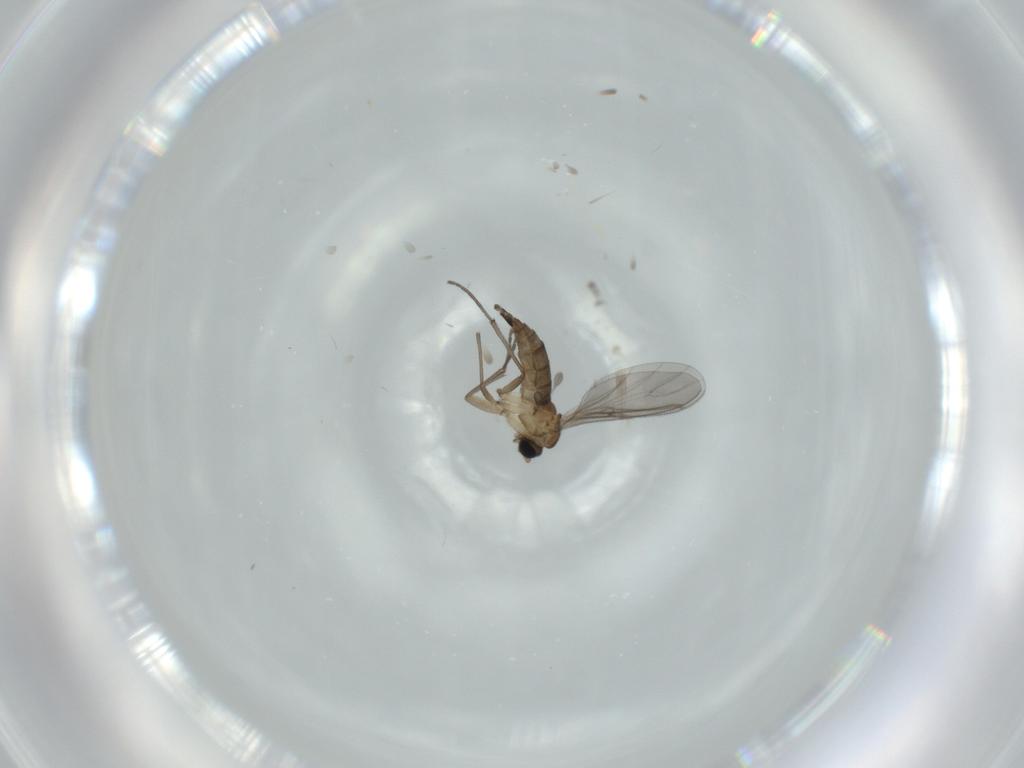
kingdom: Animalia
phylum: Arthropoda
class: Insecta
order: Diptera
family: Sciaridae
